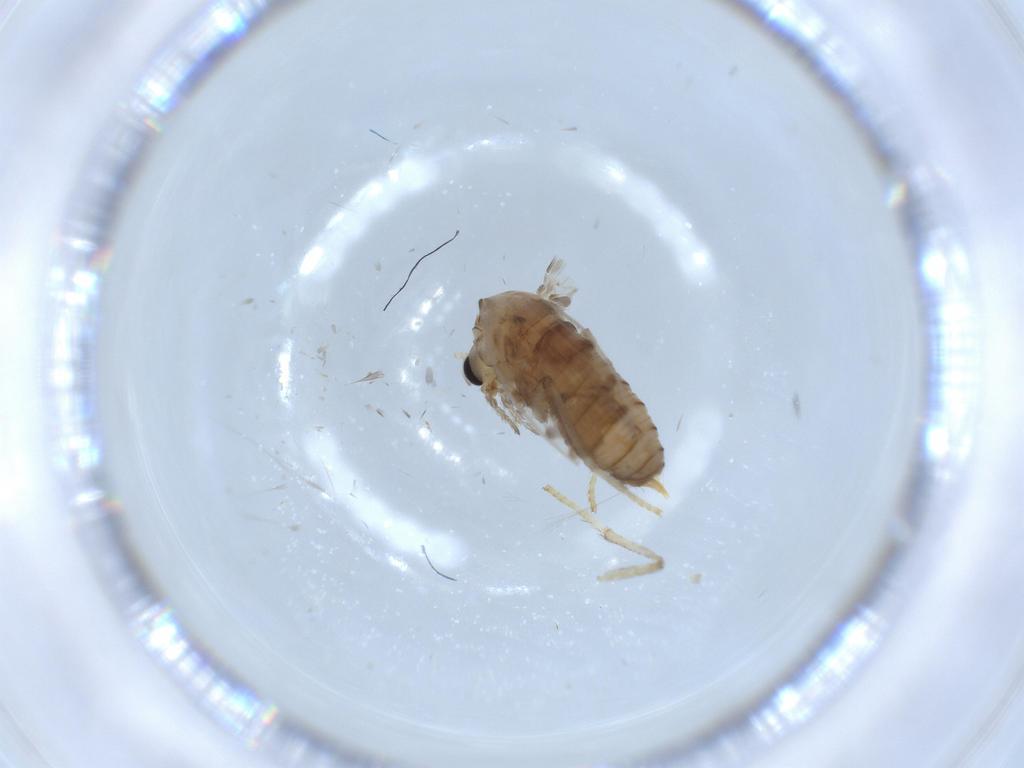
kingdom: Animalia
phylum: Arthropoda
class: Insecta
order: Diptera
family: Psychodidae
